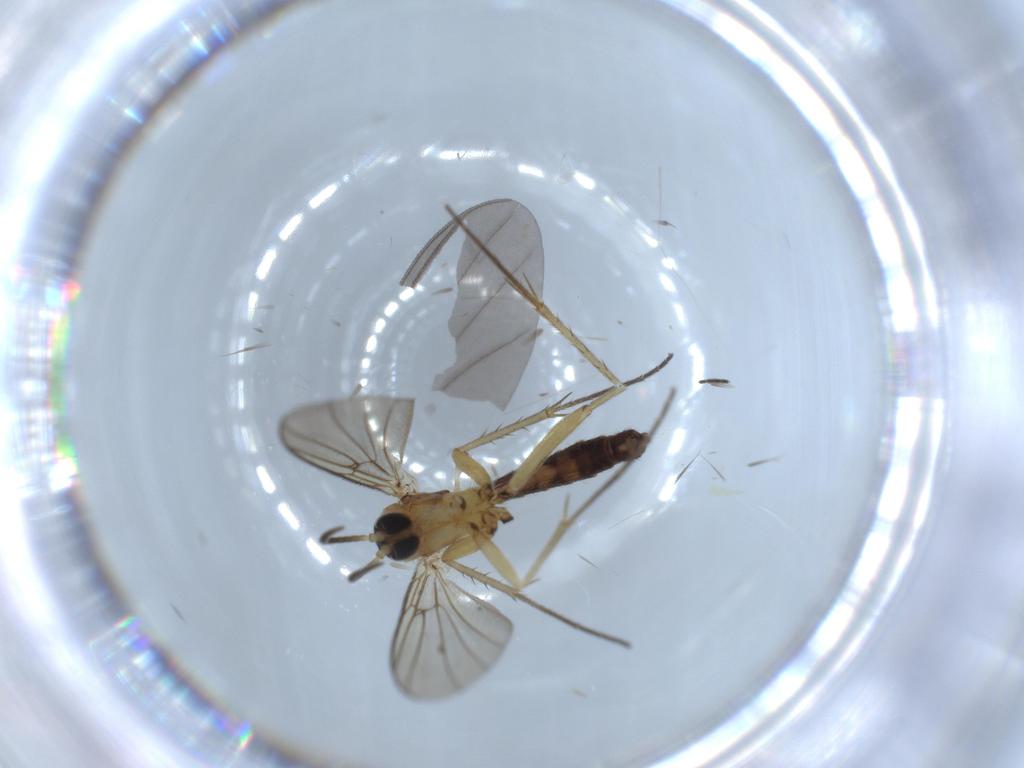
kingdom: Animalia
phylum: Arthropoda
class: Insecta
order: Diptera
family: Sciaridae
